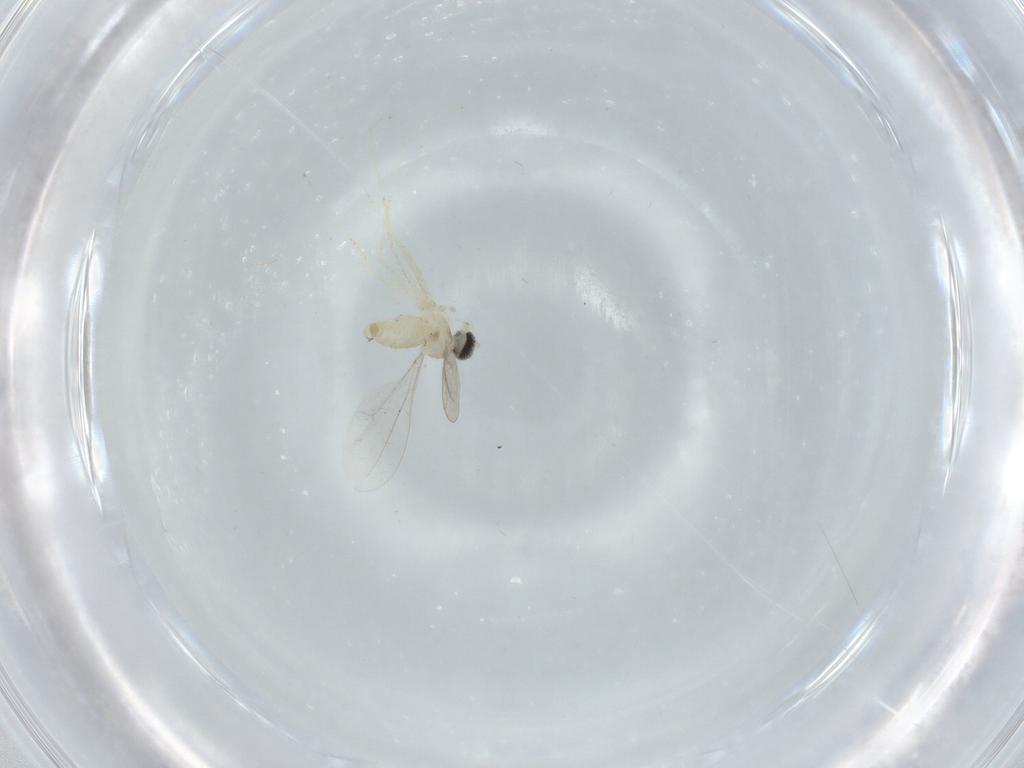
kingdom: Animalia
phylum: Arthropoda
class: Insecta
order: Diptera
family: Cecidomyiidae
